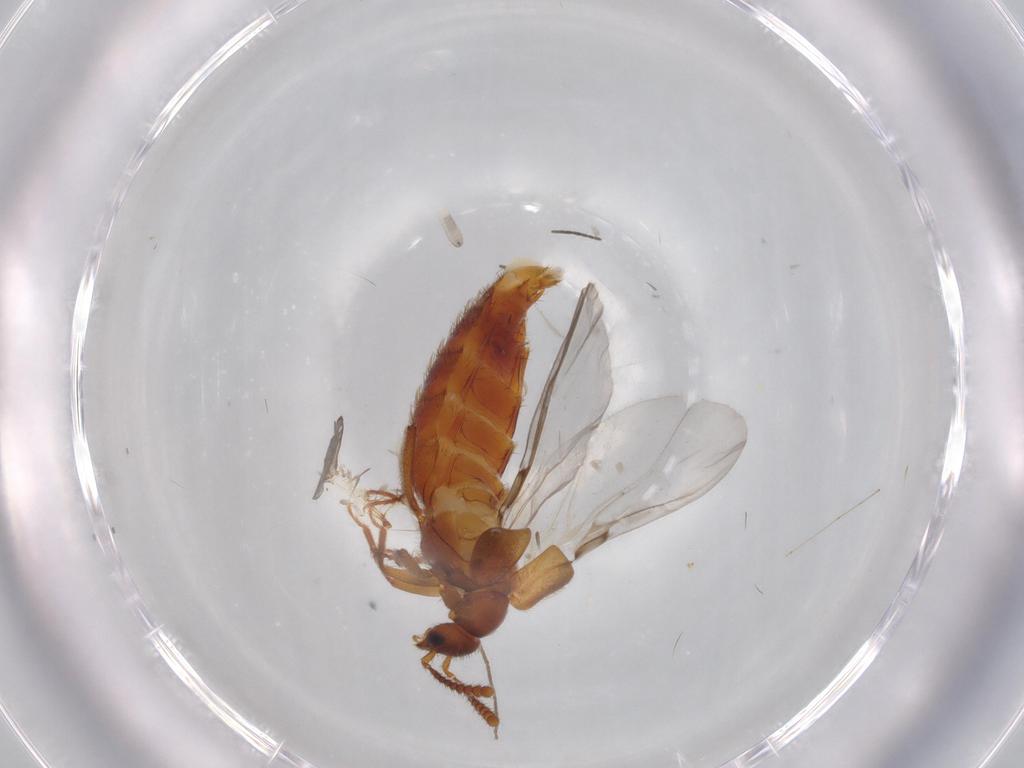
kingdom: Animalia
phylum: Arthropoda
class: Insecta
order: Coleoptera
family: Staphylinidae
